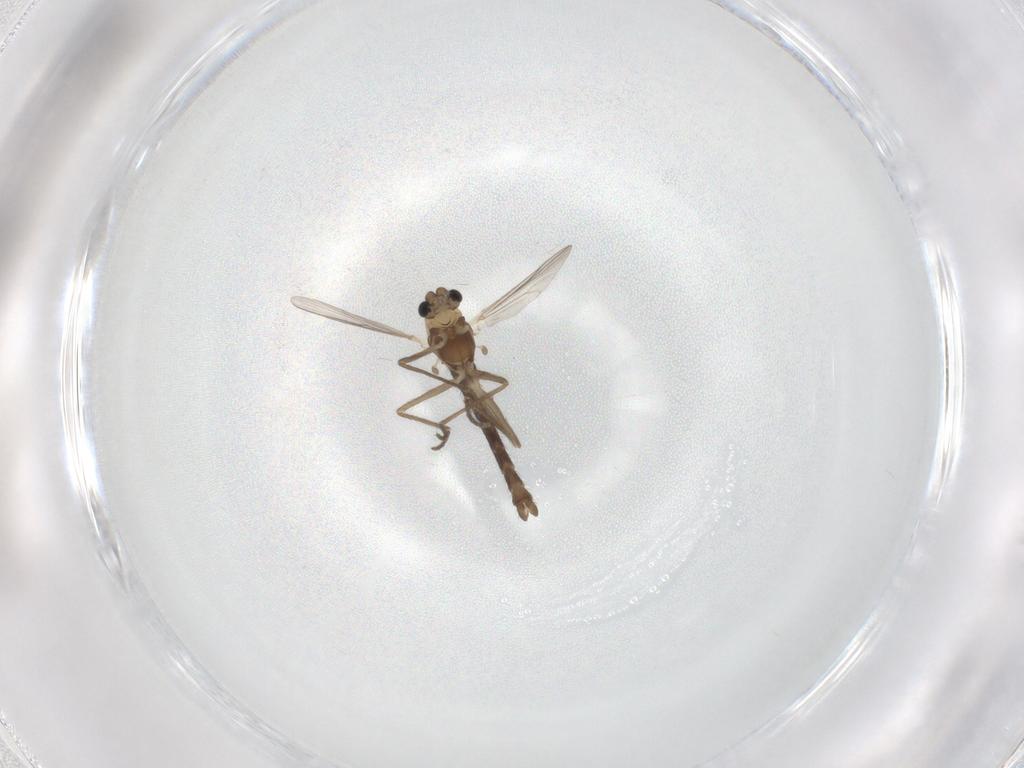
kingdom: Animalia
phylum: Arthropoda
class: Insecta
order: Diptera
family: Chironomidae
